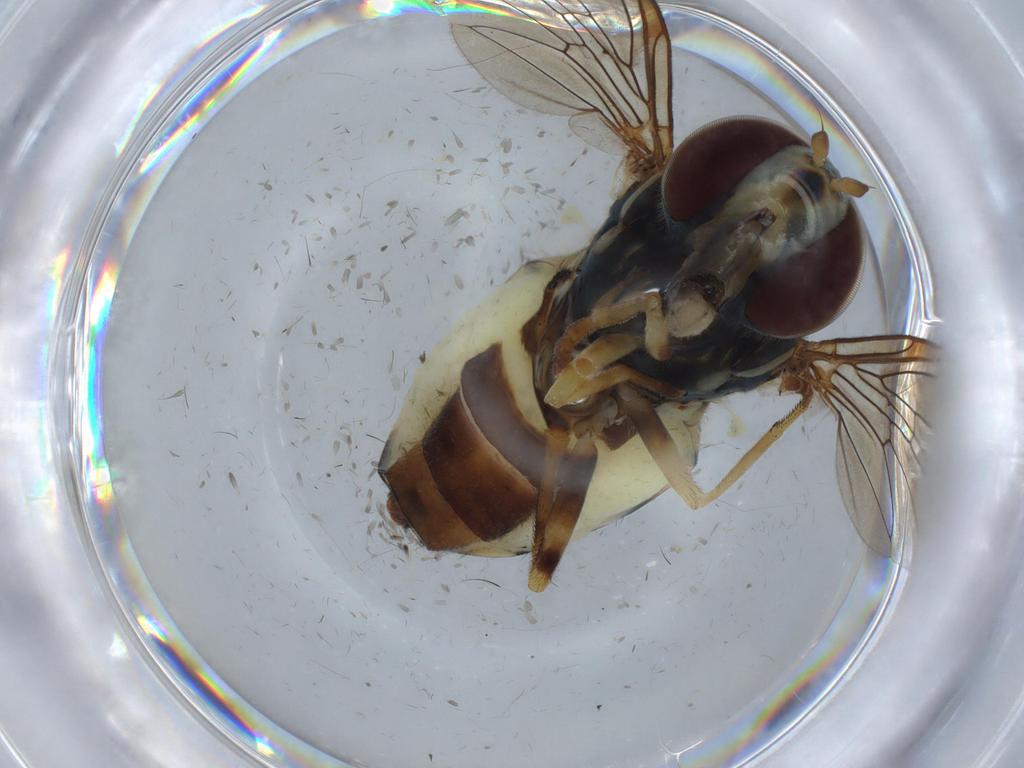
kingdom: Animalia
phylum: Arthropoda
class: Insecta
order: Diptera
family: Syrphidae
